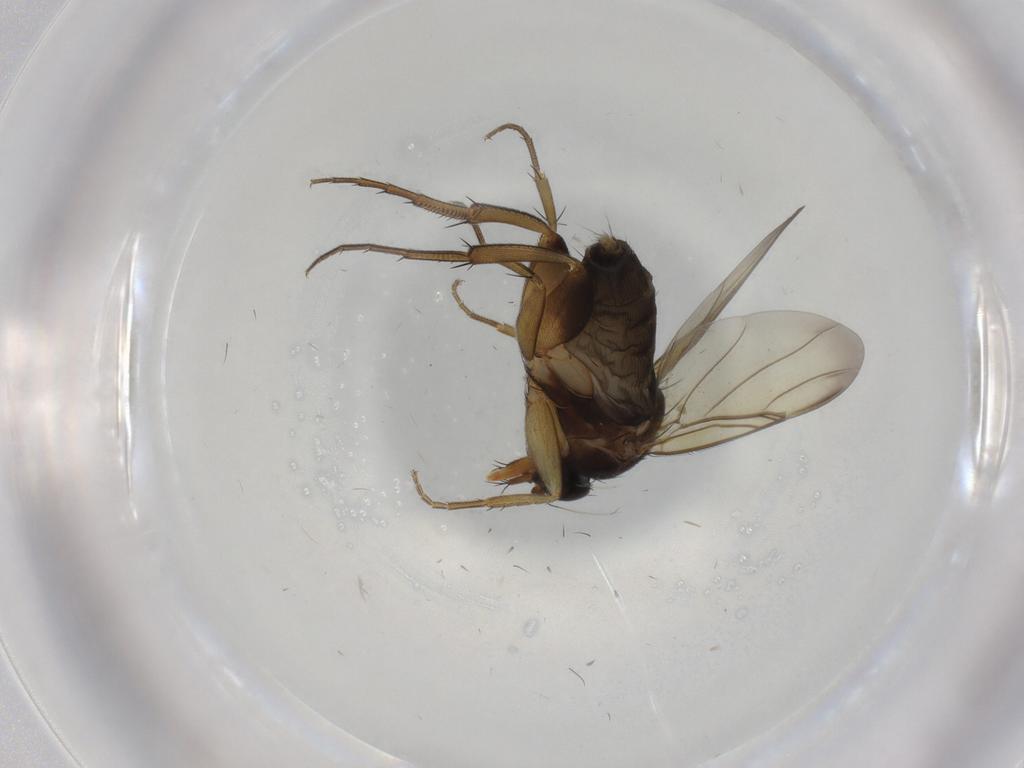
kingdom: Animalia
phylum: Arthropoda
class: Insecta
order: Diptera
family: Phoridae
